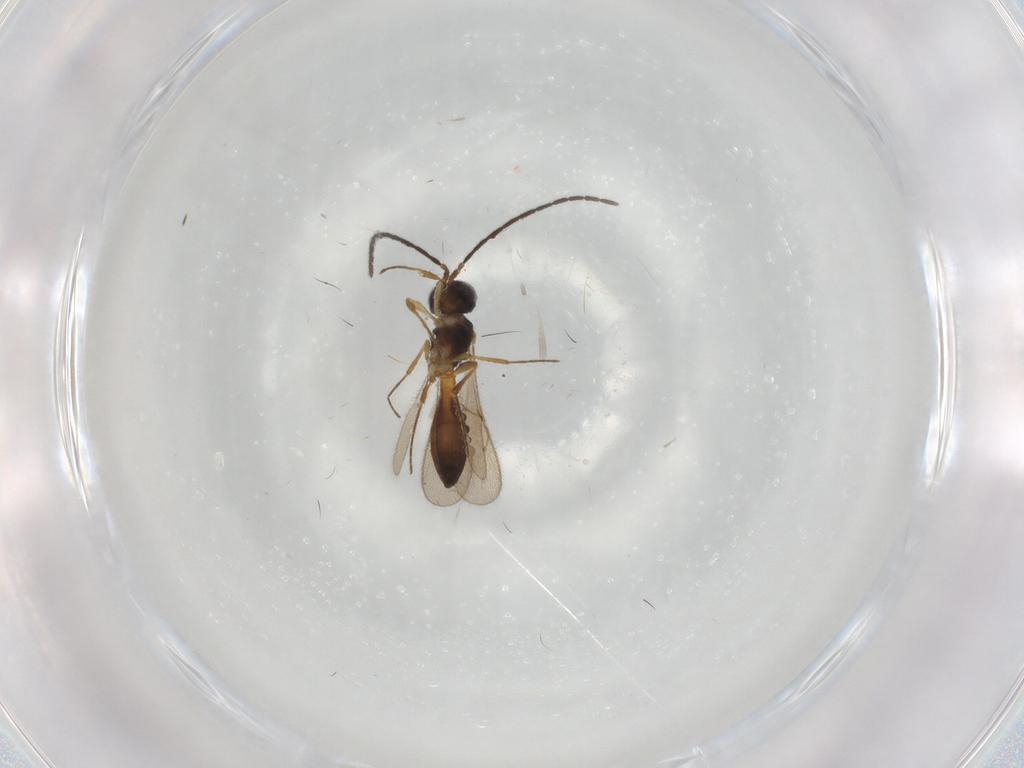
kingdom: Animalia
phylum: Arthropoda
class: Insecta
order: Hymenoptera
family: Scelionidae
